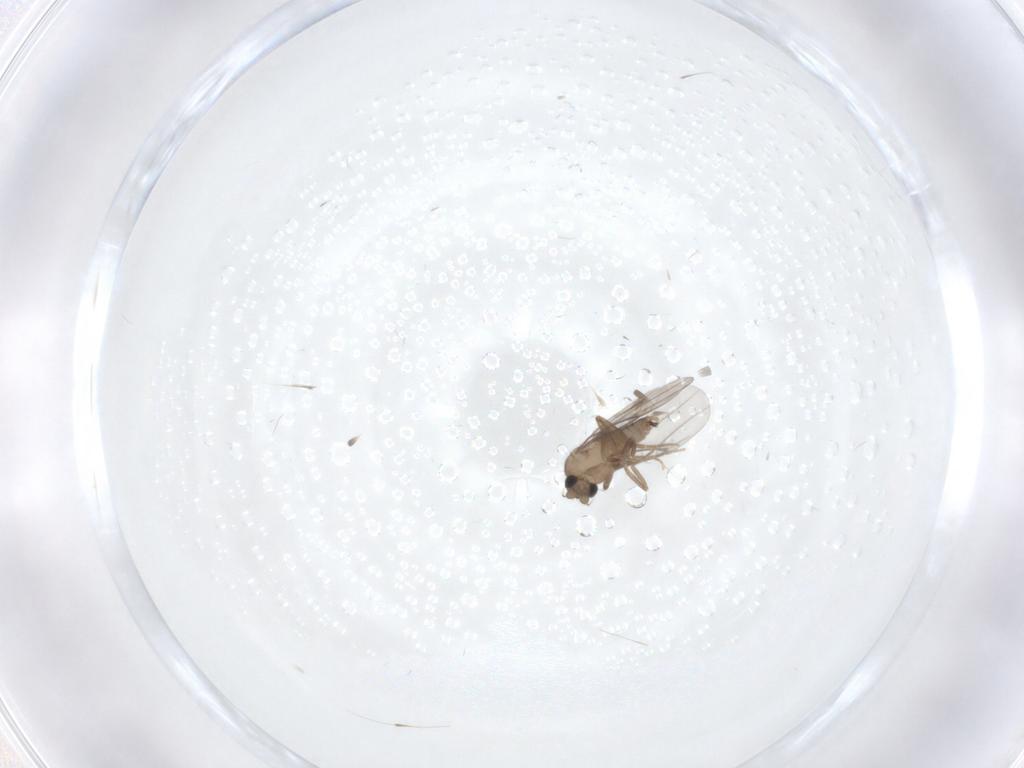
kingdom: Animalia
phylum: Arthropoda
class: Insecta
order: Diptera
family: Chironomidae
